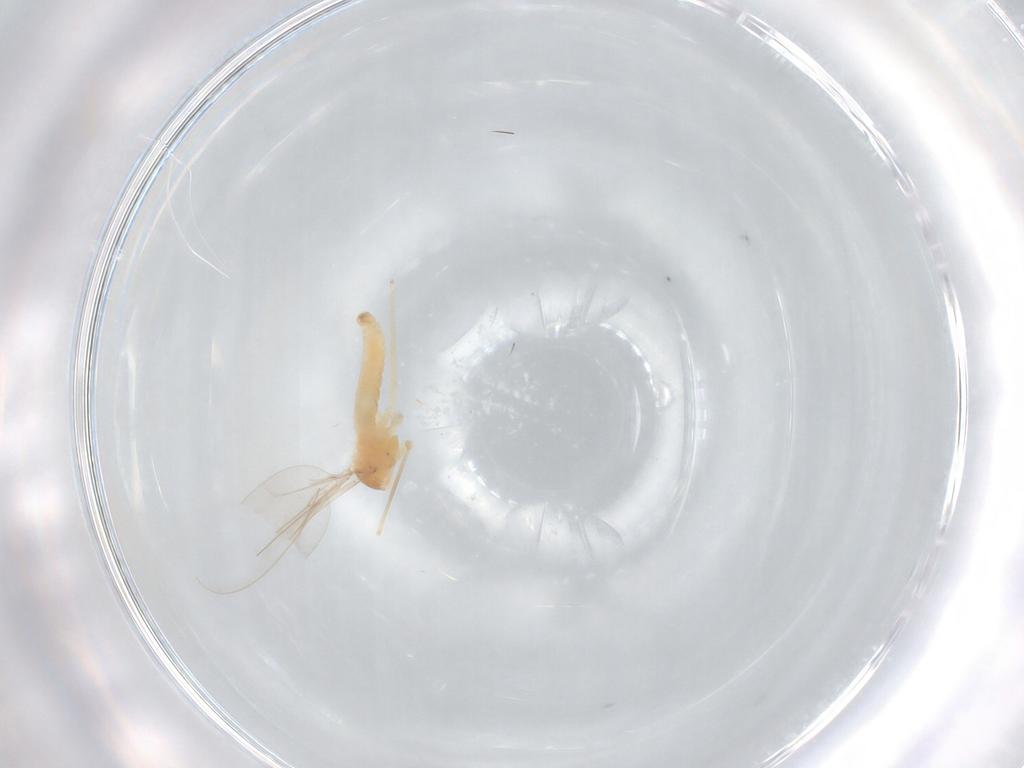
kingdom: Animalia
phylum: Arthropoda
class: Insecta
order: Diptera
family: Cecidomyiidae
